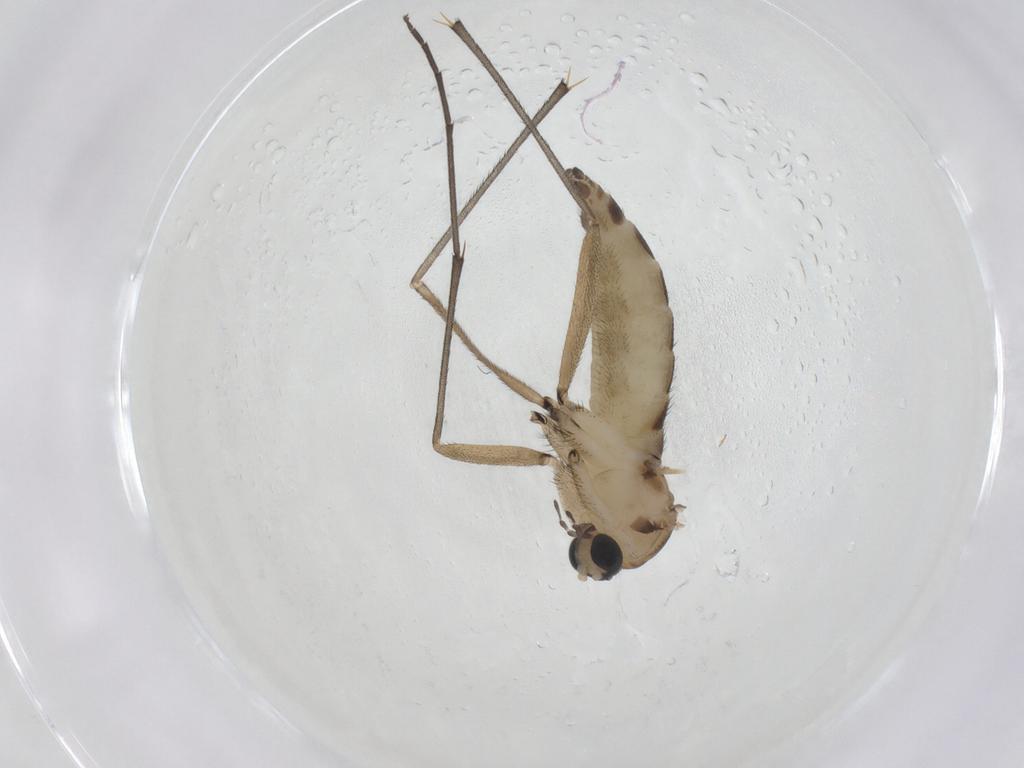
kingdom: Animalia
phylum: Arthropoda
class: Insecta
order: Diptera
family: Sciaridae
